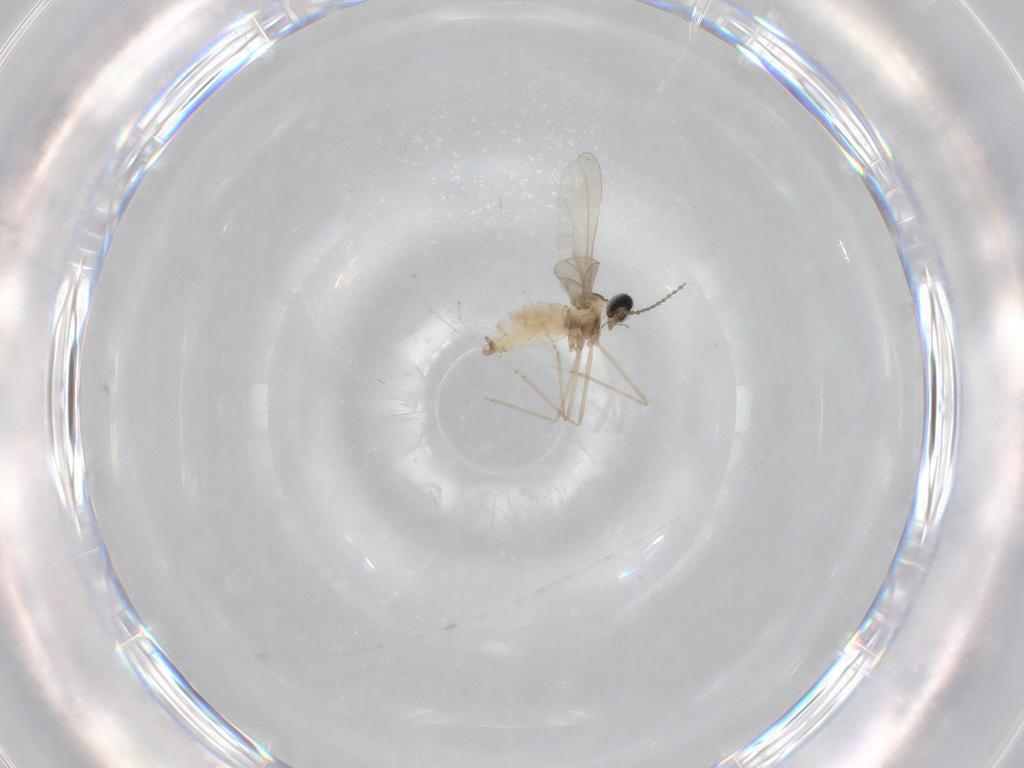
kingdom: Animalia
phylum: Arthropoda
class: Insecta
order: Diptera
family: Cecidomyiidae
